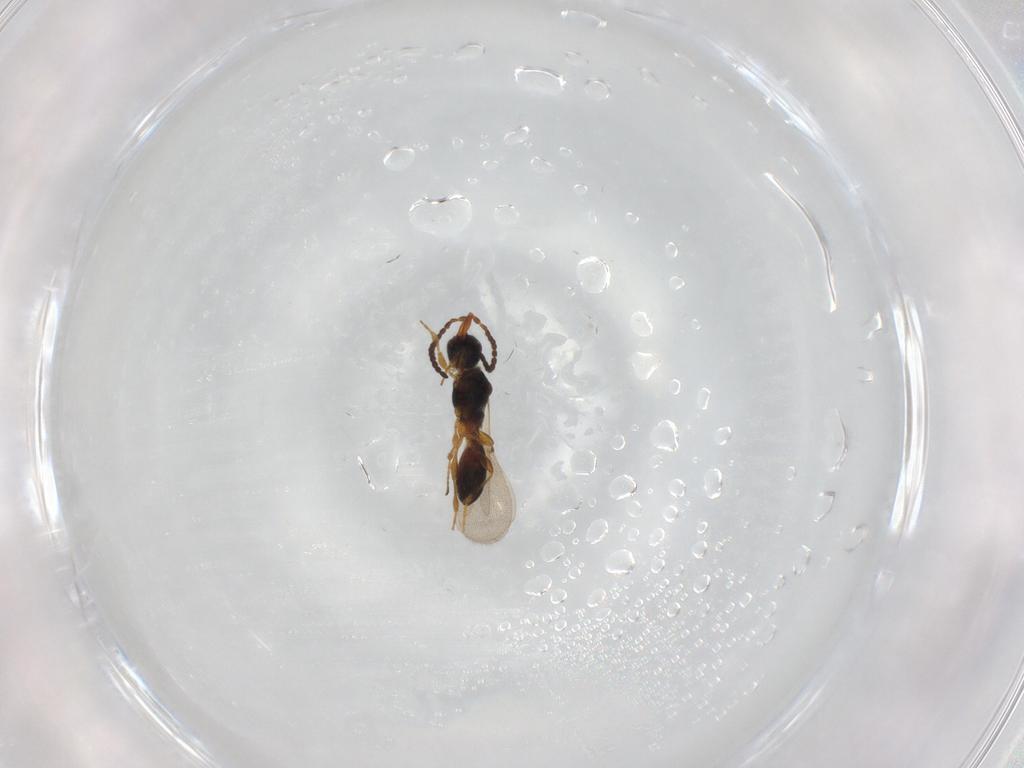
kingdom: Animalia
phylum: Arthropoda
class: Insecta
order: Hymenoptera
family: Diapriidae
